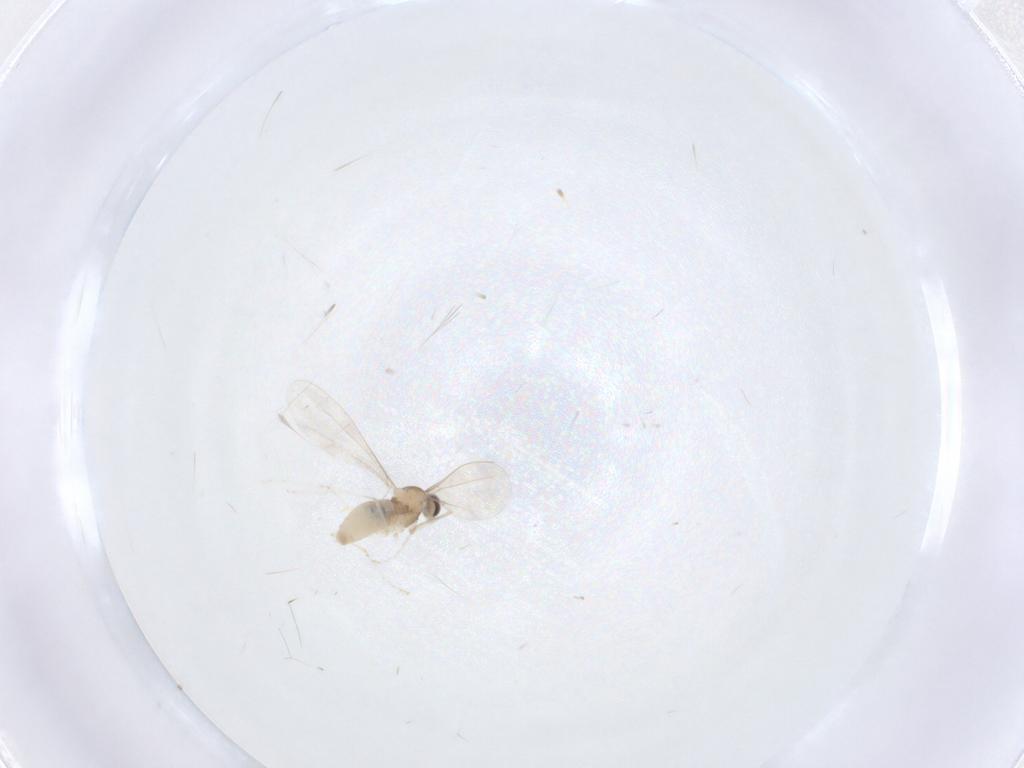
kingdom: Animalia
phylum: Arthropoda
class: Insecta
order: Diptera
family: Cecidomyiidae
